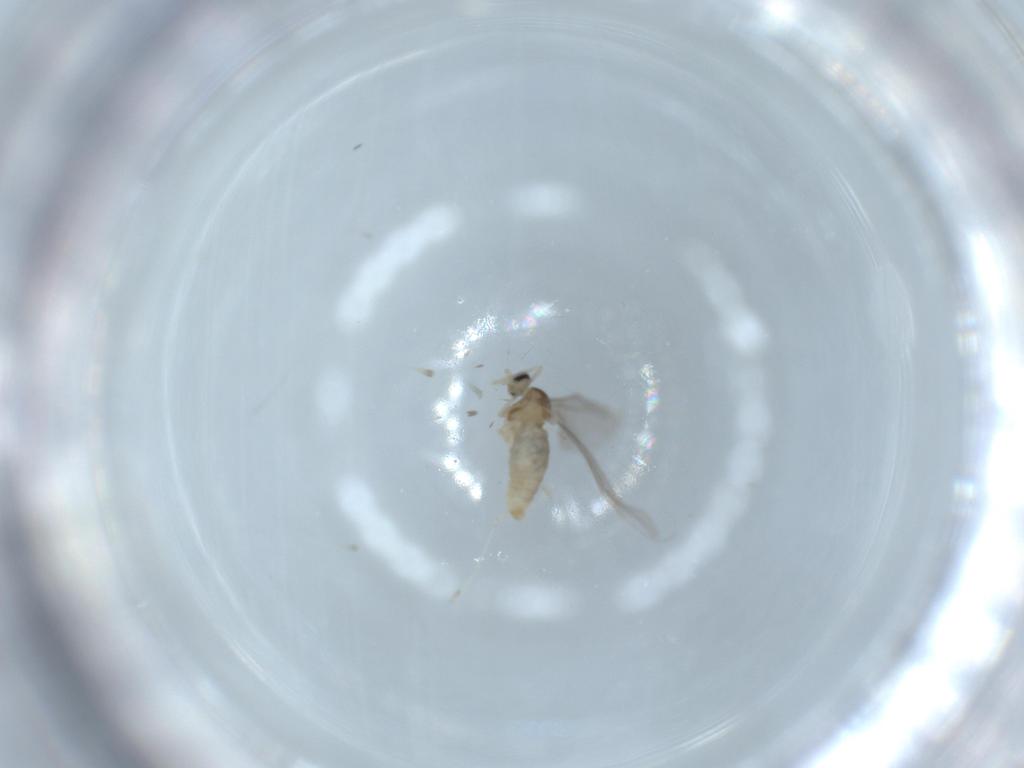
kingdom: Animalia
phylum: Arthropoda
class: Insecta
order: Diptera
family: Cecidomyiidae
